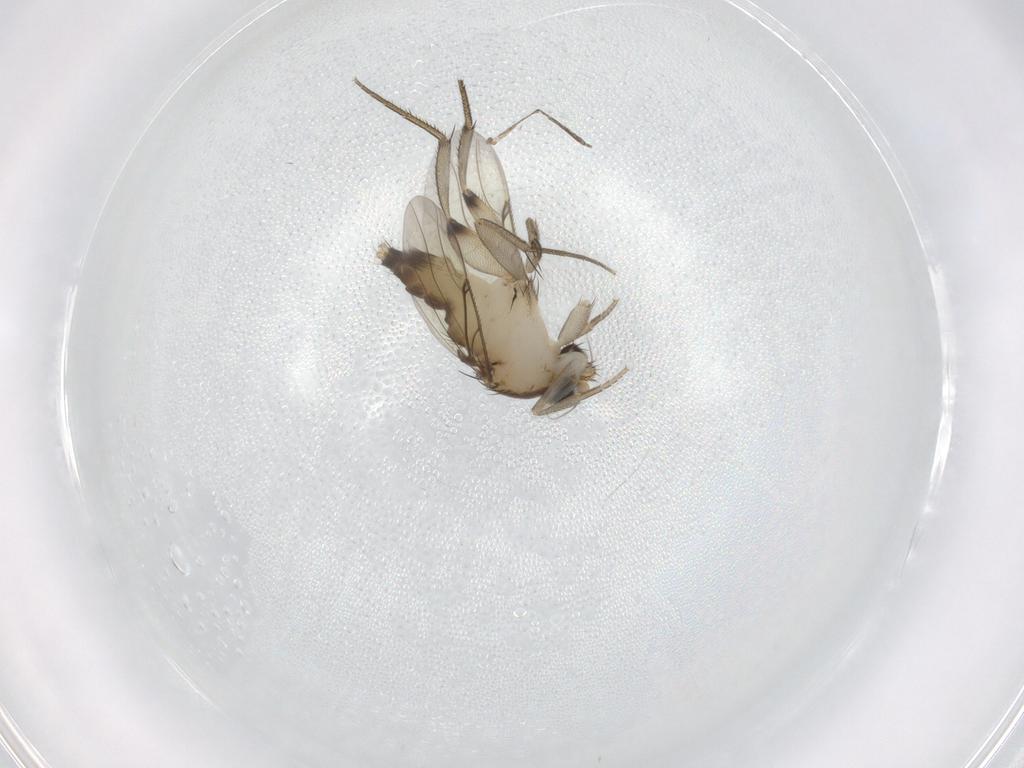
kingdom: Animalia
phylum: Arthropoda
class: Insecta
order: Diptera
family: Phoridae
